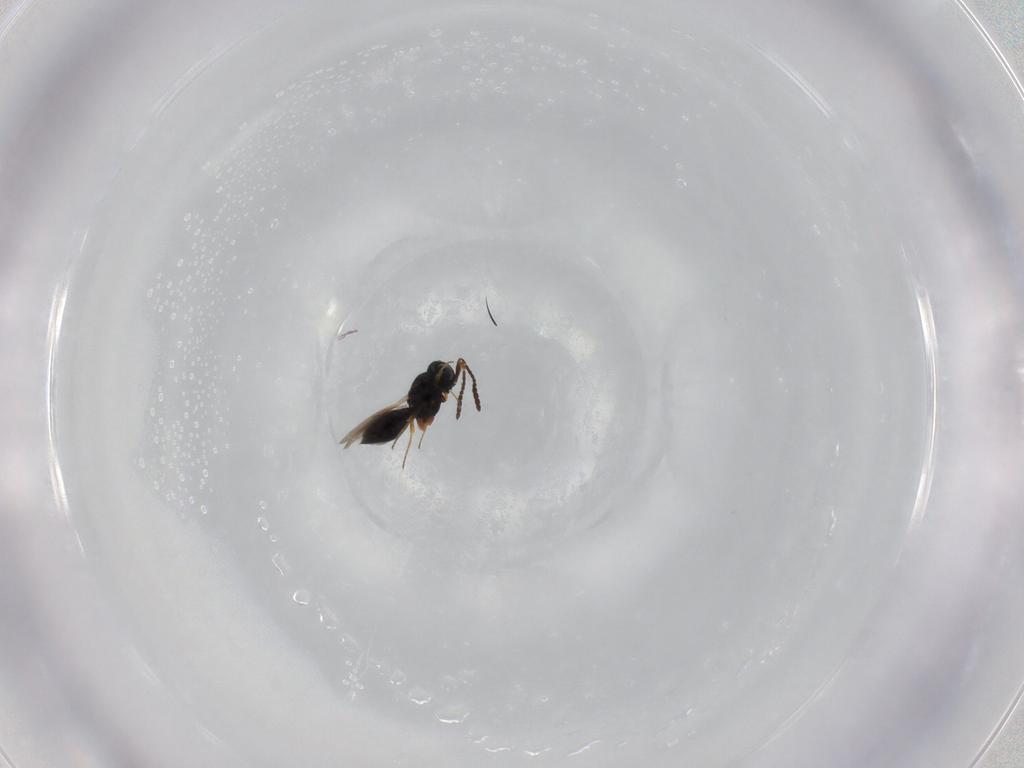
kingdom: Animalia
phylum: Arthropoda
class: Insecta
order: Hymenoptera
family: Scelionidae
